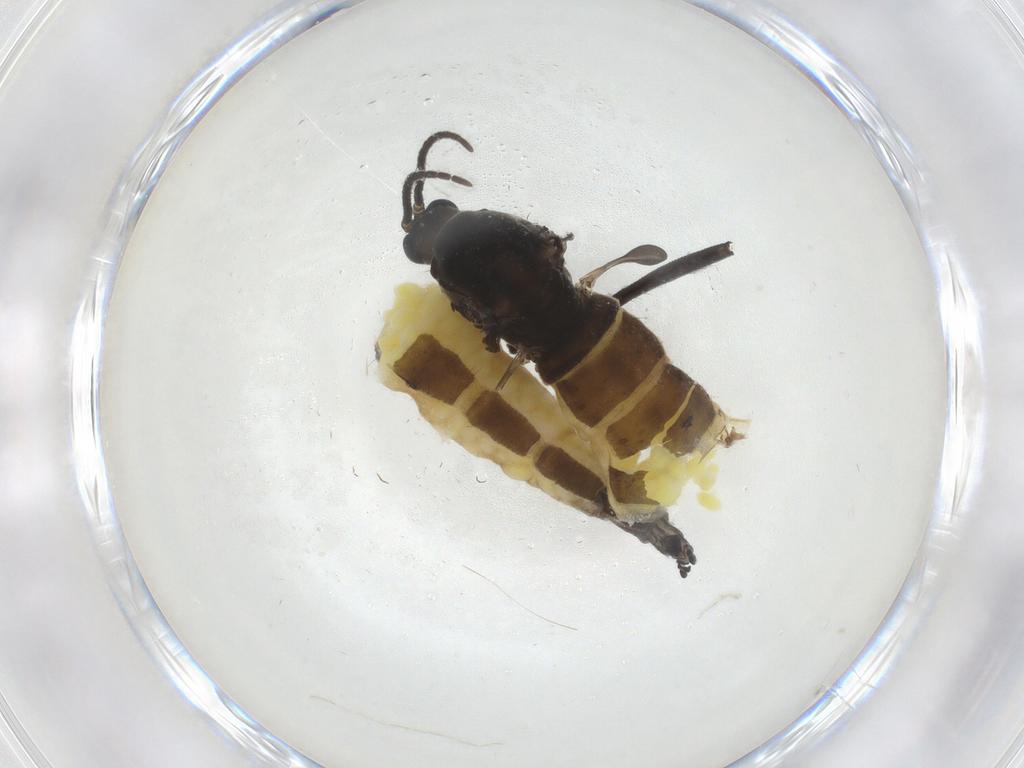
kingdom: Animalia
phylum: Arthropoda
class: Insecta
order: Diptera
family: Sciaridae
